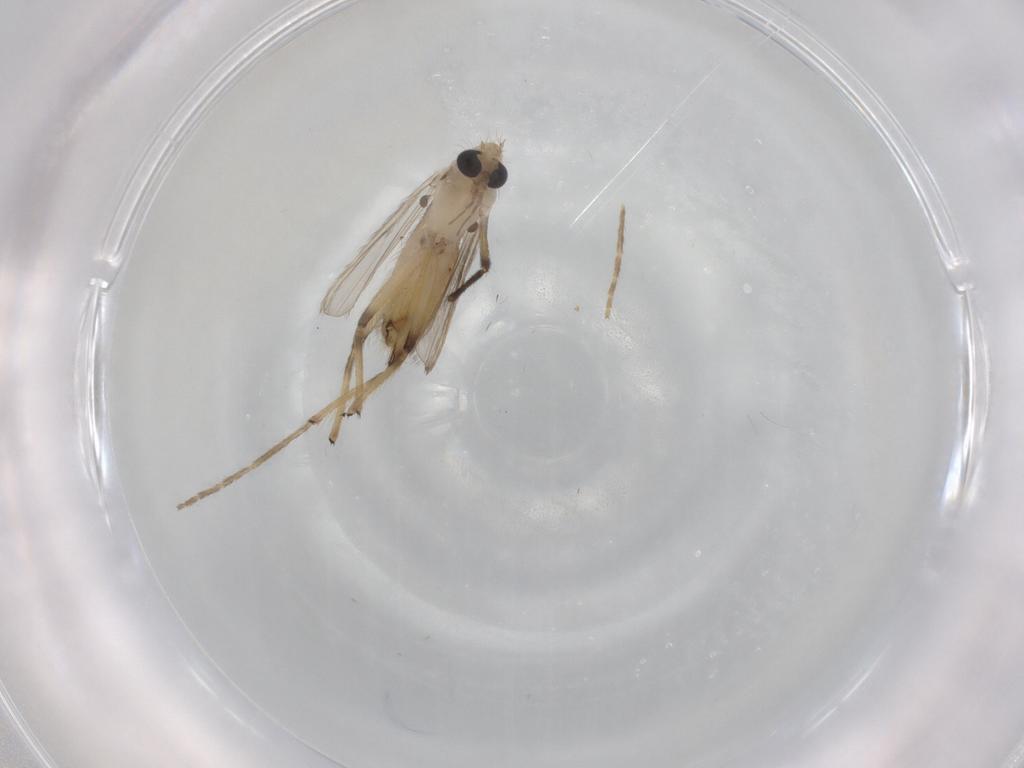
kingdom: Animalia
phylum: Arthropoda
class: Insecta
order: Diptera
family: Chironomidae
